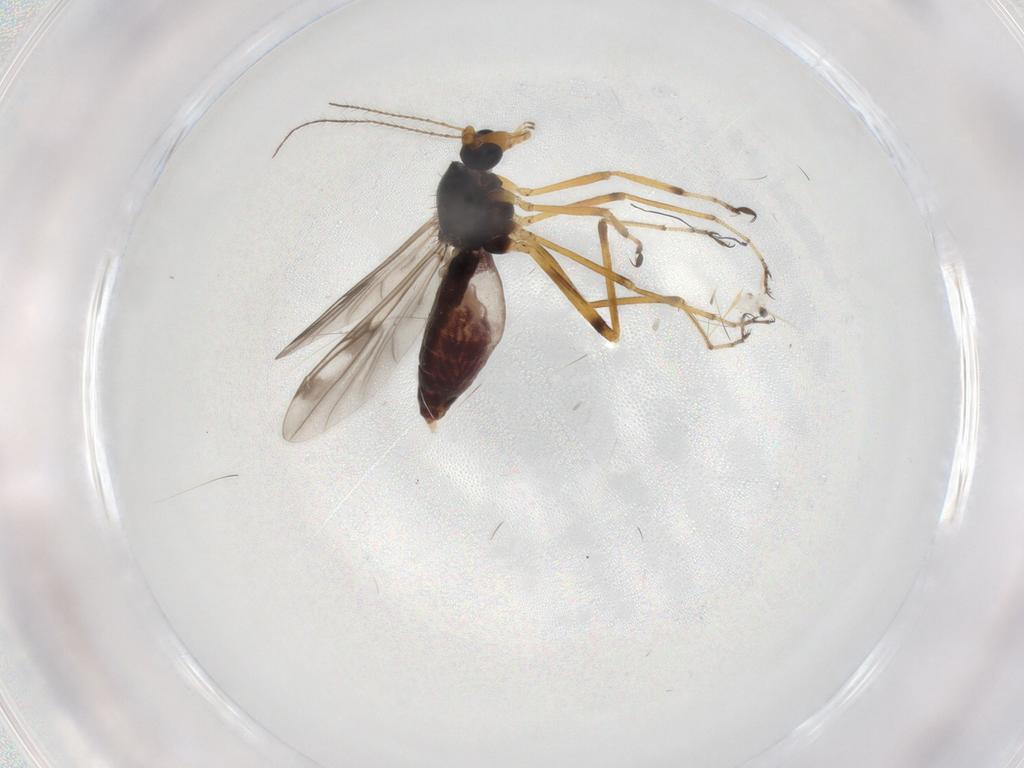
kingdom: Animalia
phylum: Arthropoda
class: Insecta
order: Diptera
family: Ceratopogonidae
